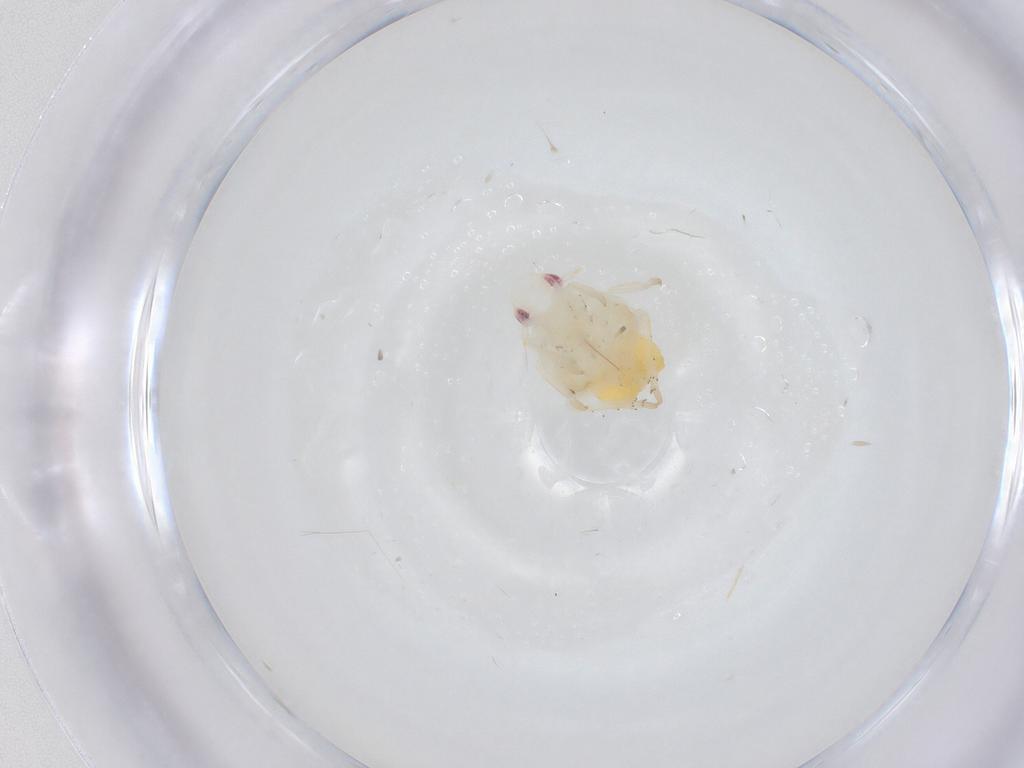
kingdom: Animalia
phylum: Arthropoda
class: Insecta
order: Hemiptera
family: Fulgoroidea_incertae_sedis
